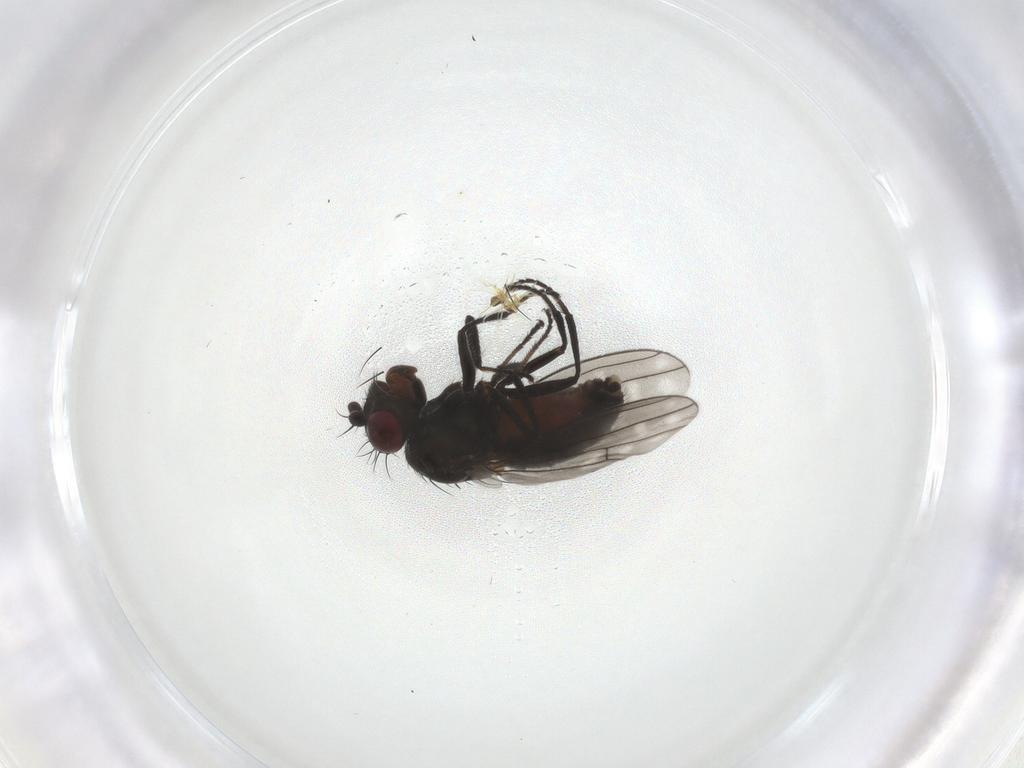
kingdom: Animalia
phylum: Arthropoda
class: Insecta
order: Diptera
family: Ephydridae
